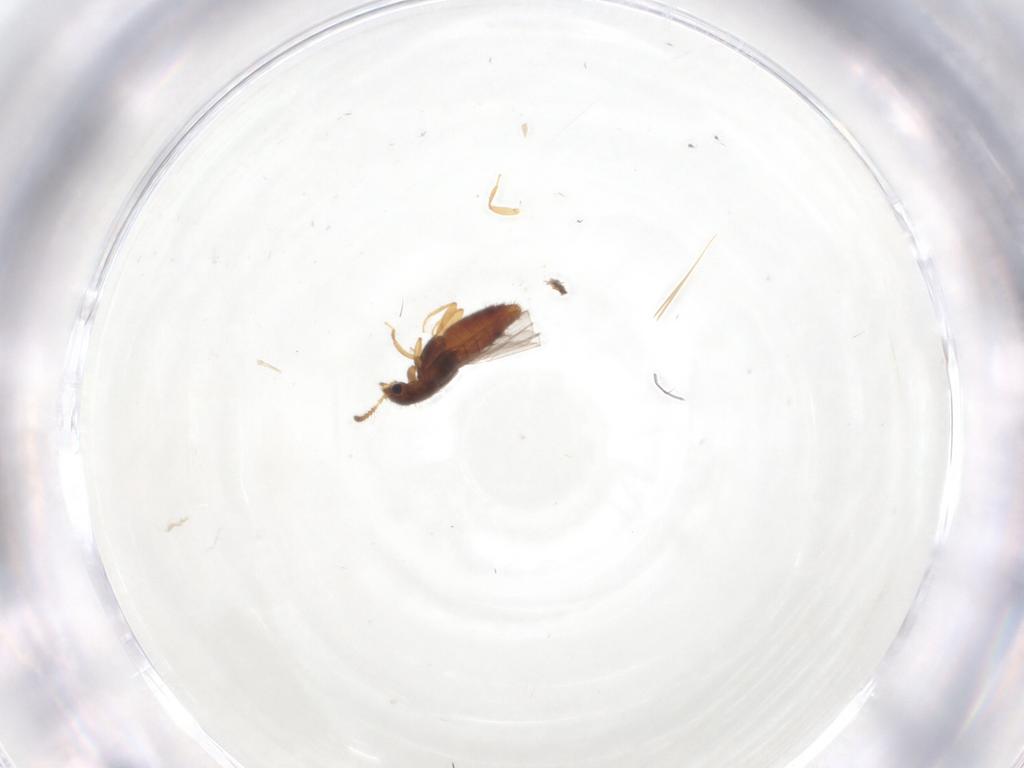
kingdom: Animalia
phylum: Arthropoda
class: Insecta
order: Coleoptera
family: Staphylinidae
